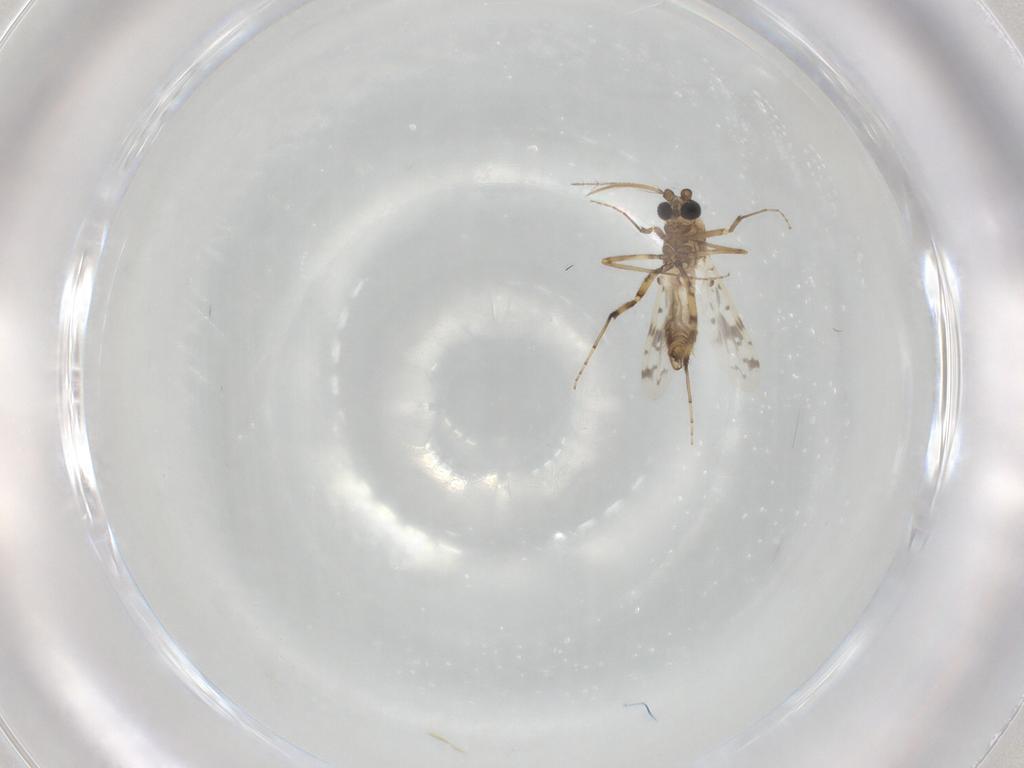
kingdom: Animalia
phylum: Arthropoda
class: Insecta
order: Diptera
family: Ceratopogonidae
